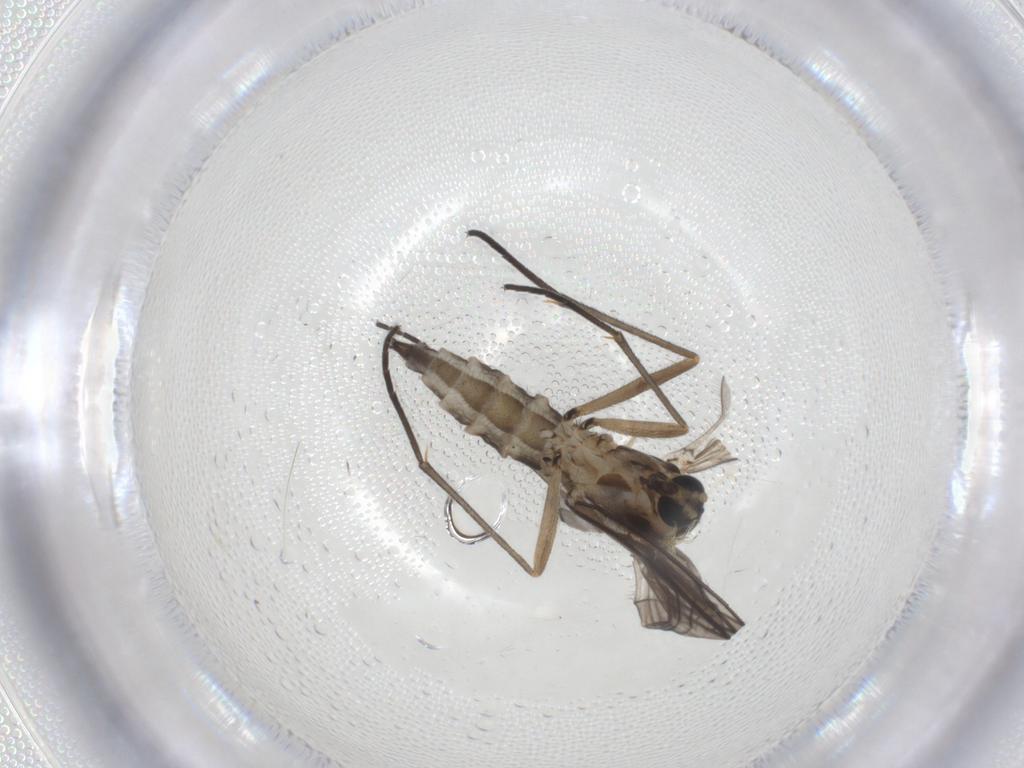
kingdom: Animalia
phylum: Arthropoda
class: Insecta
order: Diptera
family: Sciaridae
